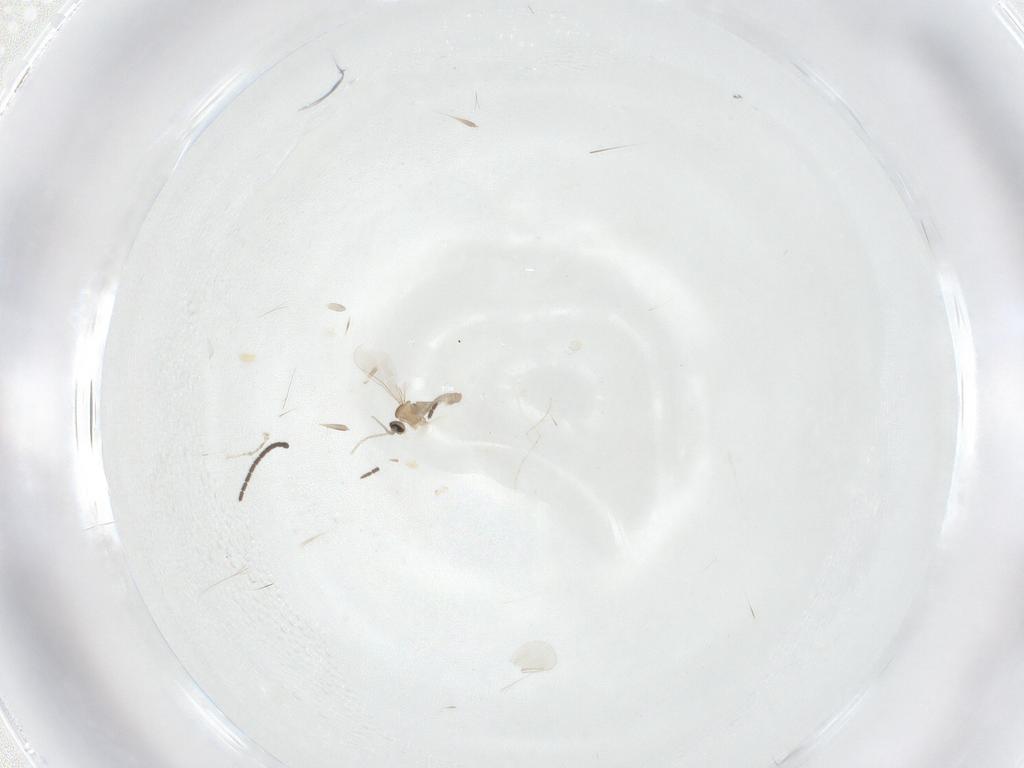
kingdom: Animalia
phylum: Arthropoda
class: Insecta
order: Diptera
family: Cecidomyiidae
